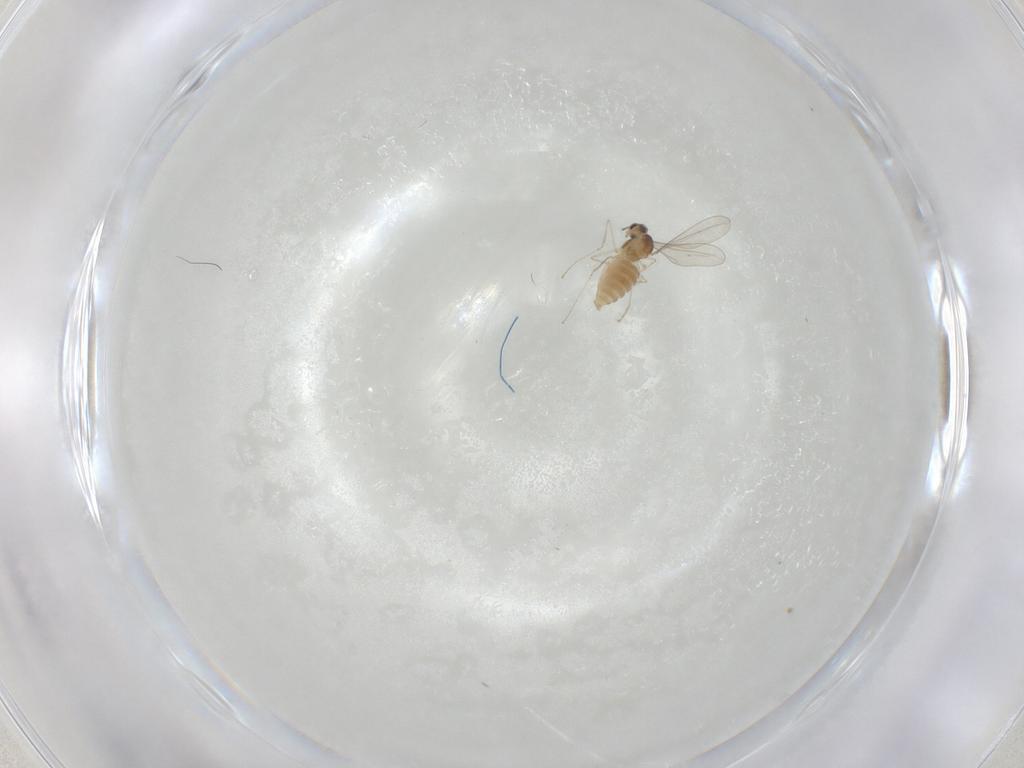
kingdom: Animalia
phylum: Arthropoda
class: Insecta
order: Diptera
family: Cecidomyiidae
